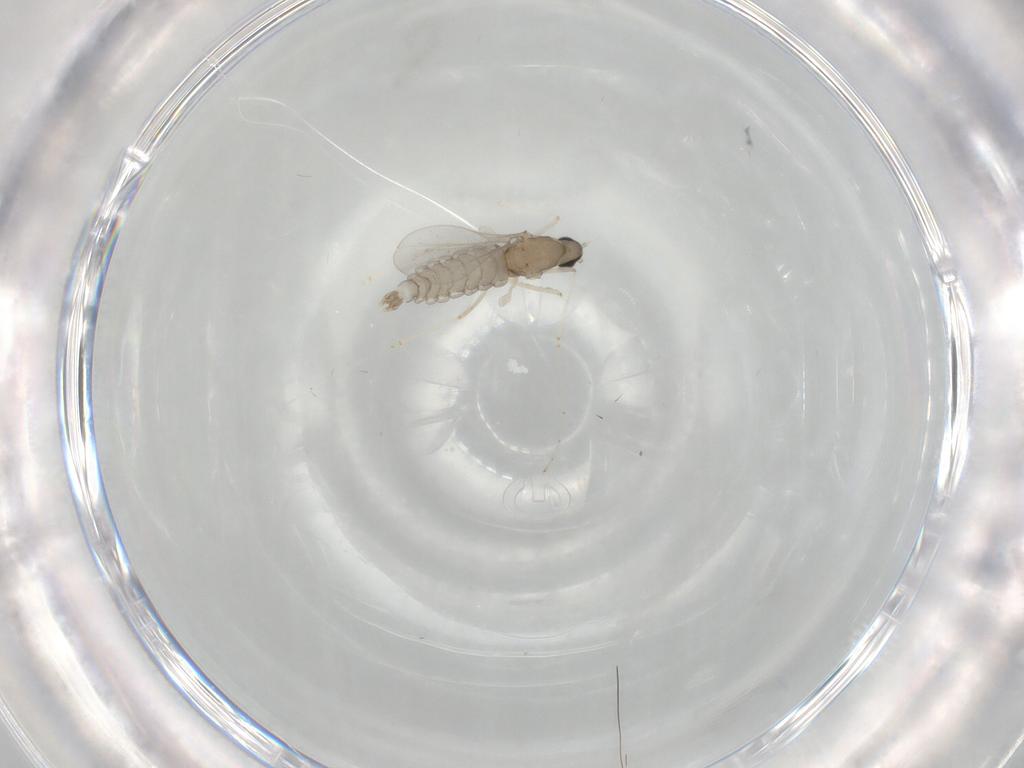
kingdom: Animalia
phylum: Arthropoda
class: Insecta
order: Diptera
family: Cecidomyiidae
